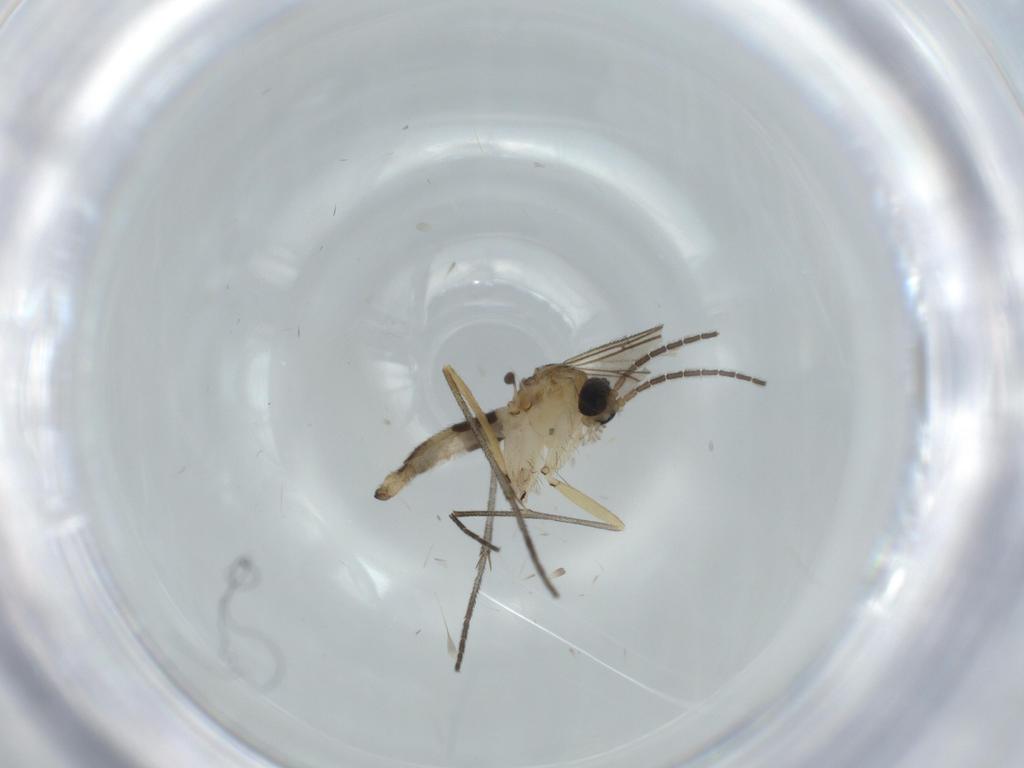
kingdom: Animalia
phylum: Arthropoda
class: Insecta
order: Diptera
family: Sciaridae
